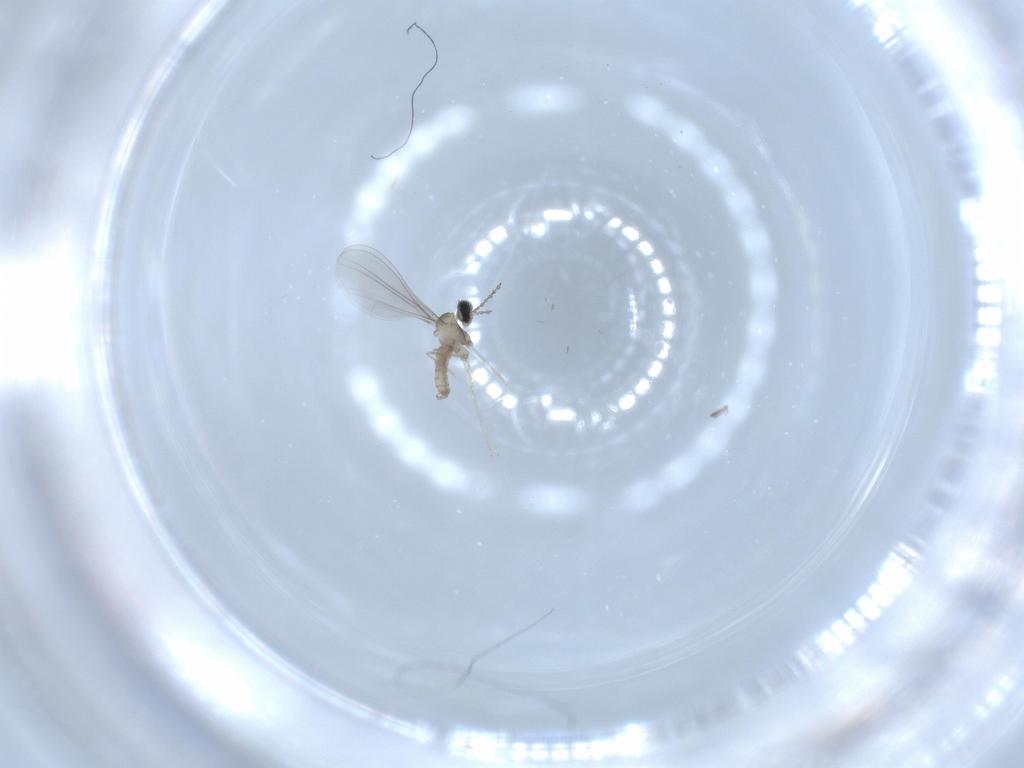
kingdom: Animalia
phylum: Arthropoda
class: Insecta
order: Diptera
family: Cecidomyiidae
